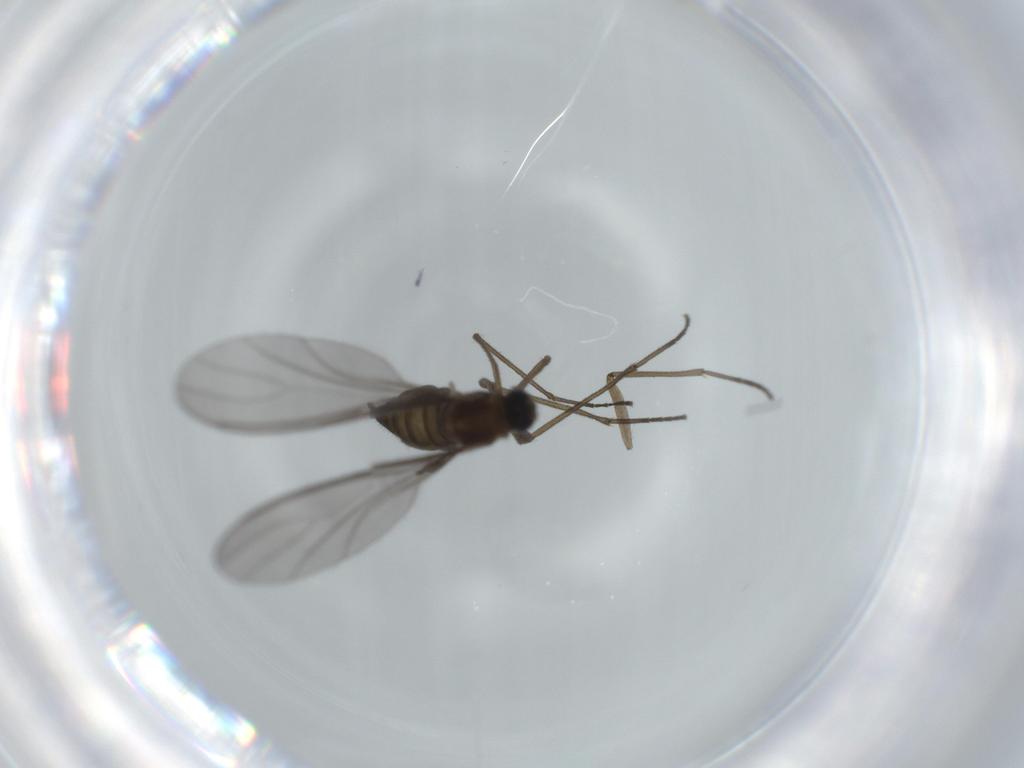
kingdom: Animalia
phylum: Arthropoda
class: Insecta
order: Diptera
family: Sciaridae
